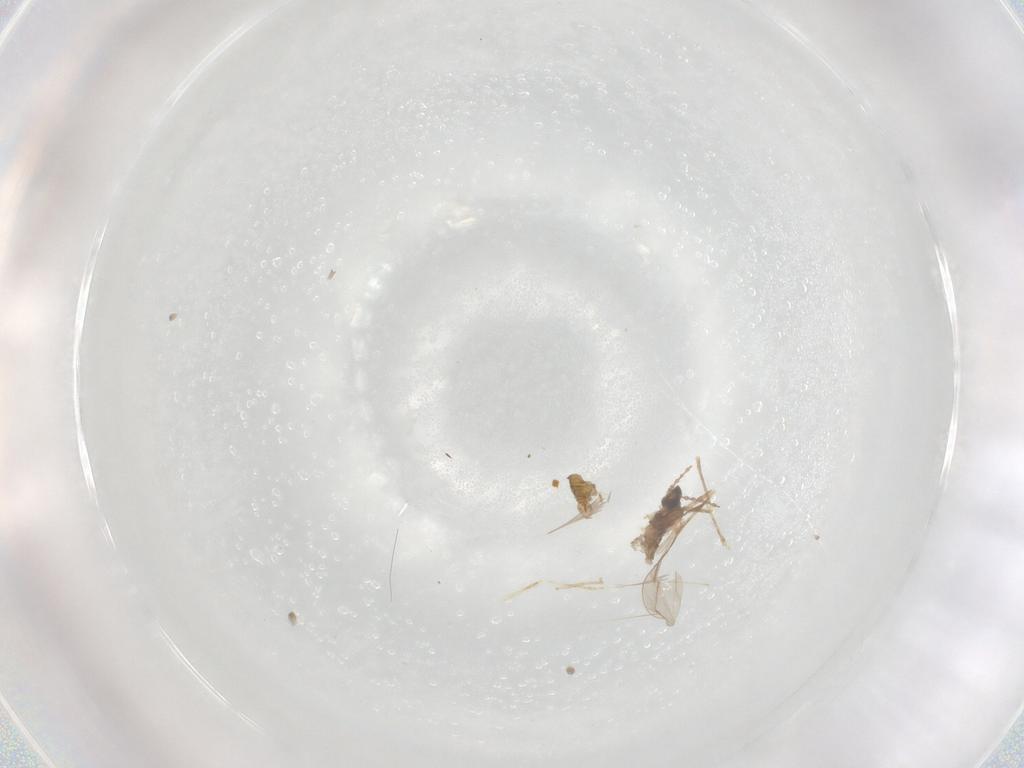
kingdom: Animalia
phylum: Arthropoda
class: Insecta
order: Diptera
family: Cecidomyiidae
